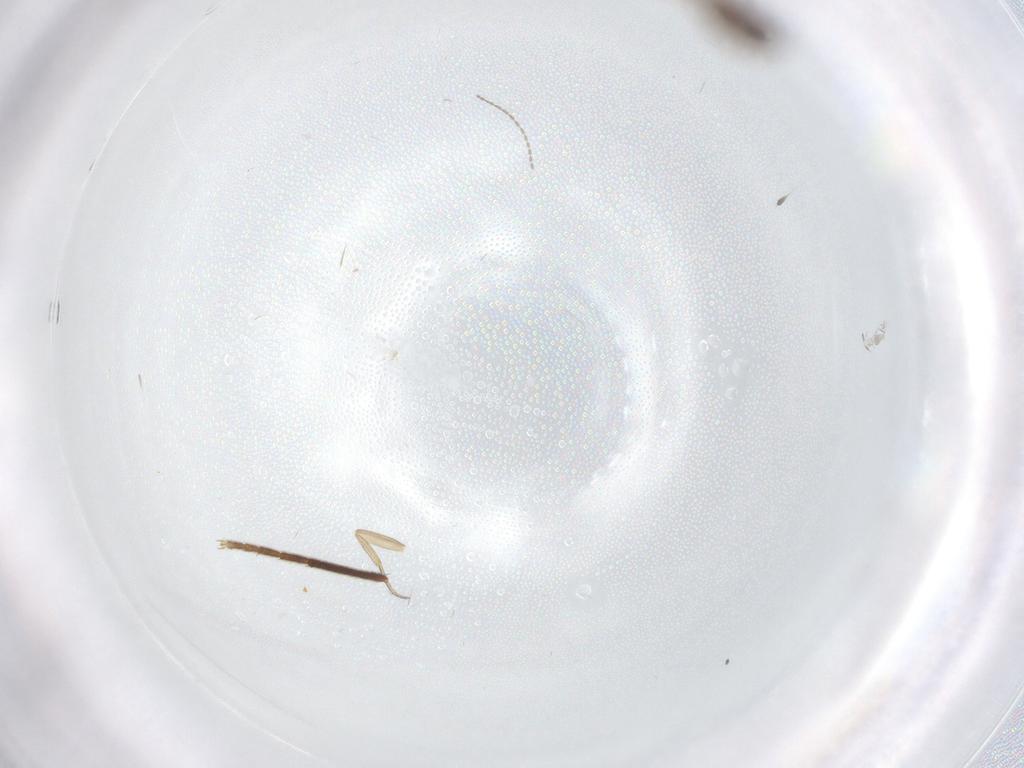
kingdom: Animalia
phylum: Arthropoda
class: Insecta
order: Diptera
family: Chironomidae
